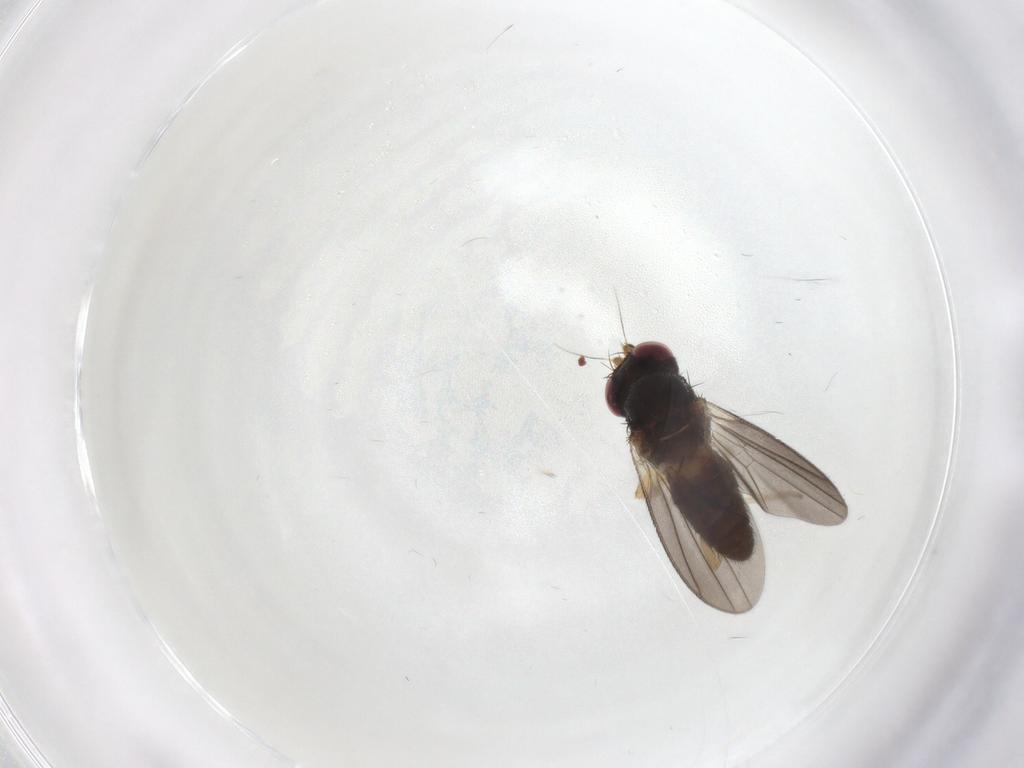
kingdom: Animalia
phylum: Arthropoda
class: Insecta
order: Diptera
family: Clusiidae
